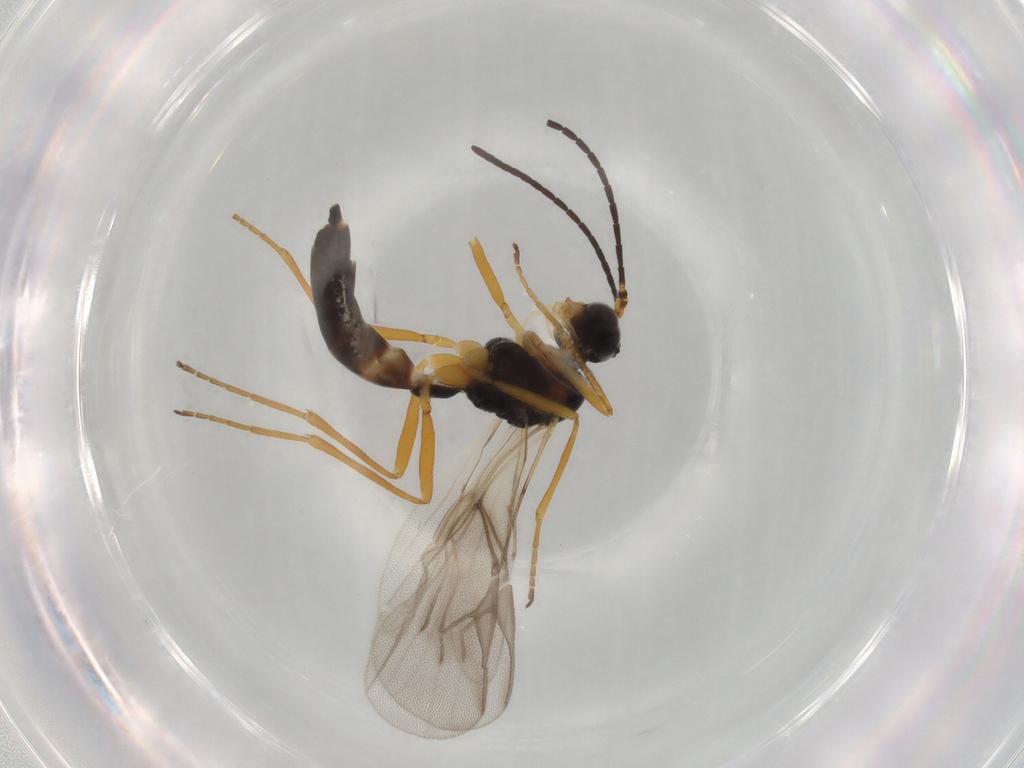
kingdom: Animalia
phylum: Arthropoda
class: Insecta
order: Hymenoptera
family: Braconidae
